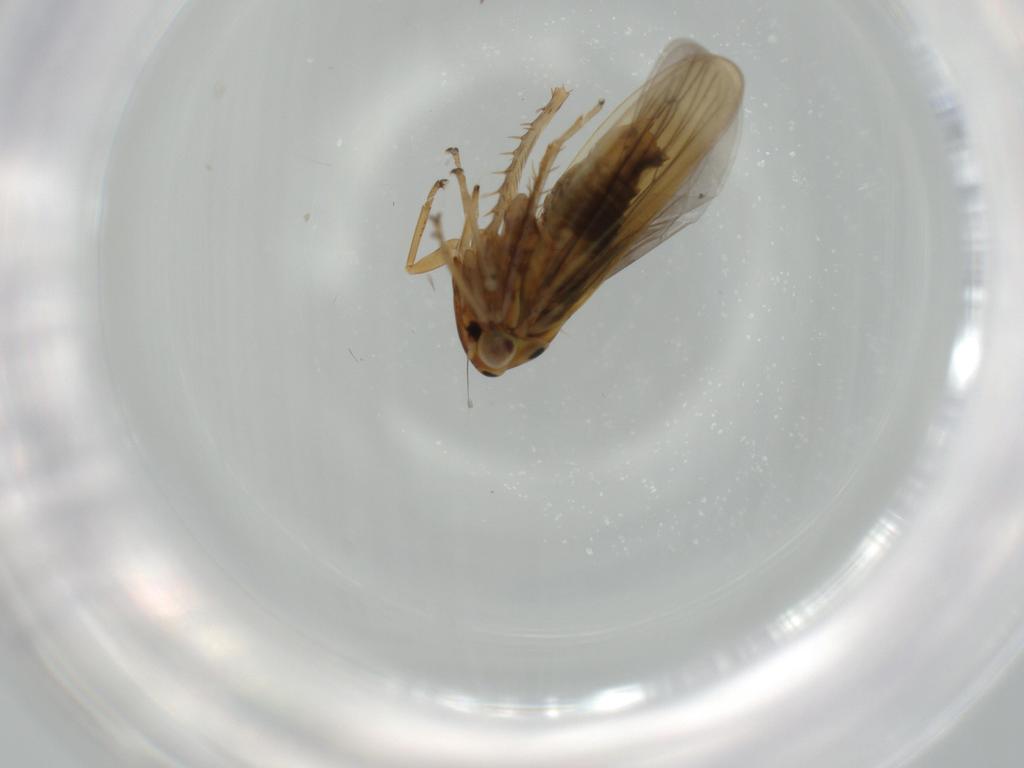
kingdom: Animalia
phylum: Arthropoda
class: Insecta
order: Hemiptera
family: Cicadellidae
